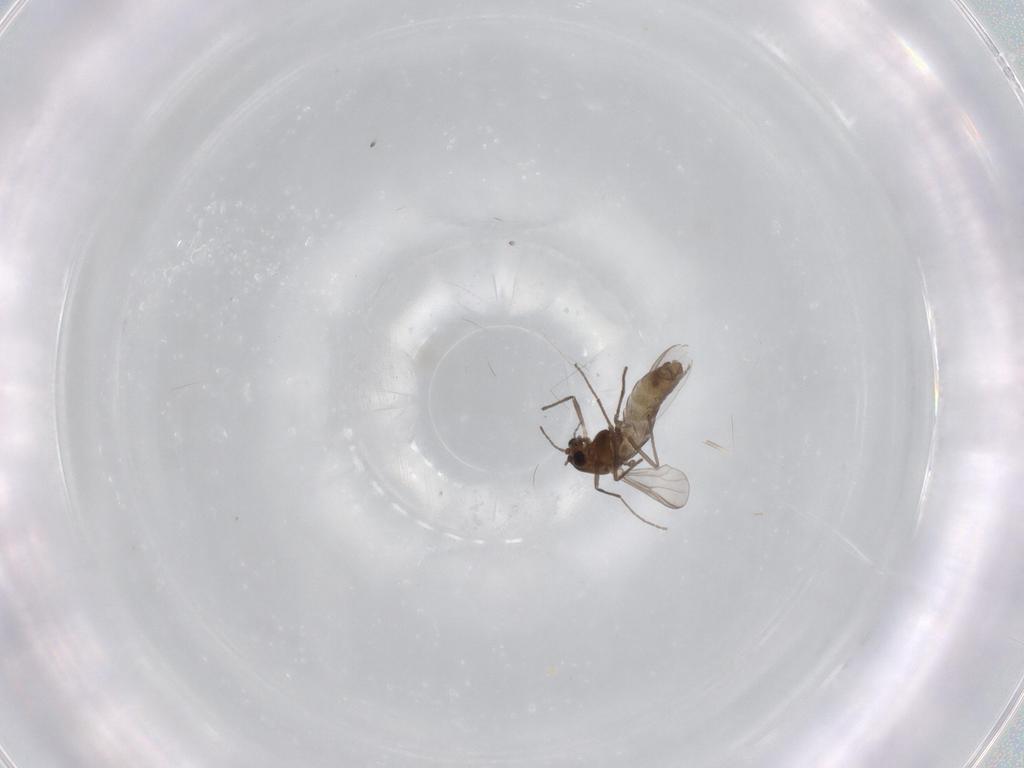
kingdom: Animalia
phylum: Arthropoda
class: Insecta
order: Diptera
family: Chironomidae
